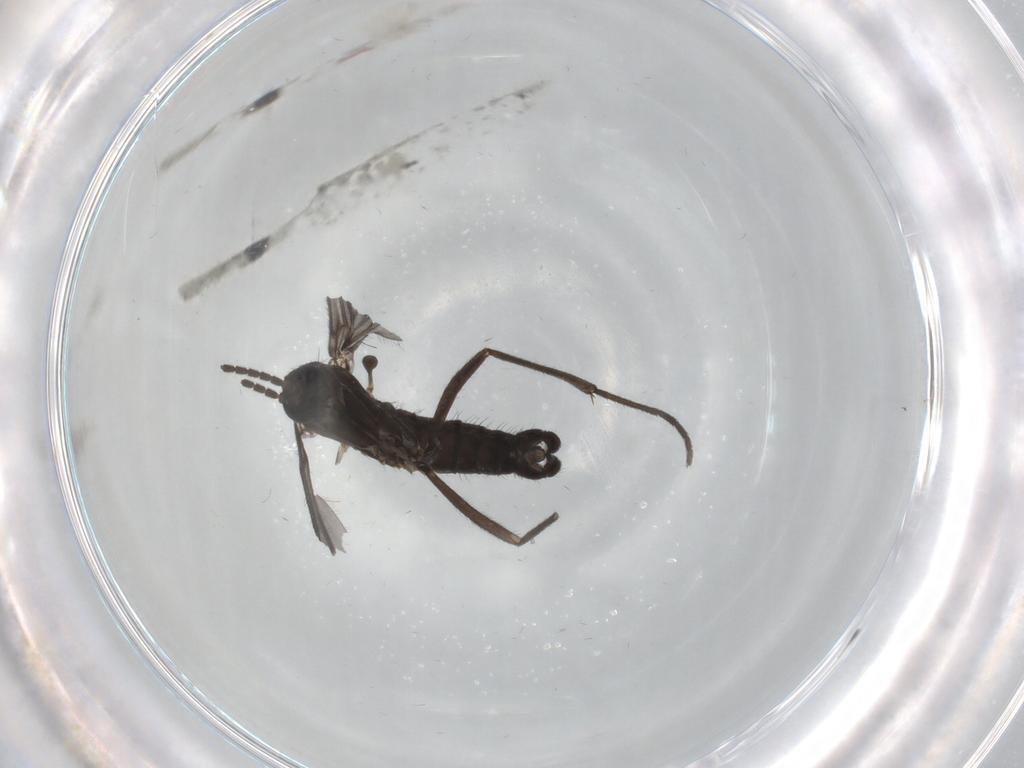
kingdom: Animalia
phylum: Arthropoda
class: Insecta
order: Diptera
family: Sciaridae
